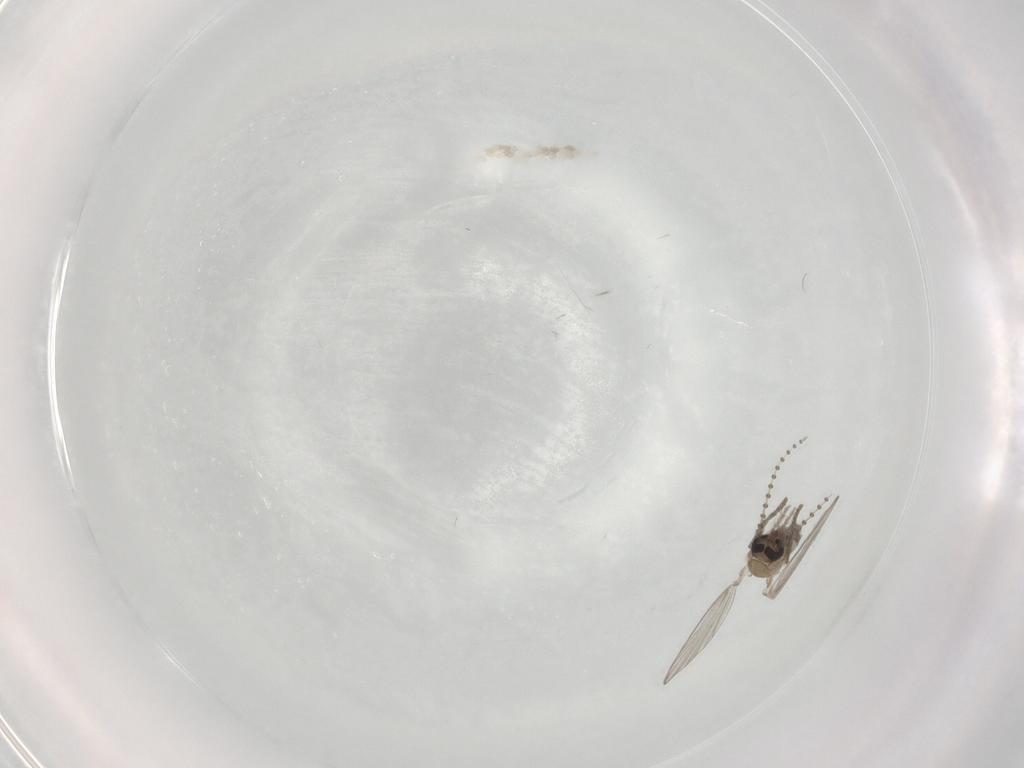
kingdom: Animalia
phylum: Arthropoda
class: Insecta
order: Diptera
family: Psychodidae
